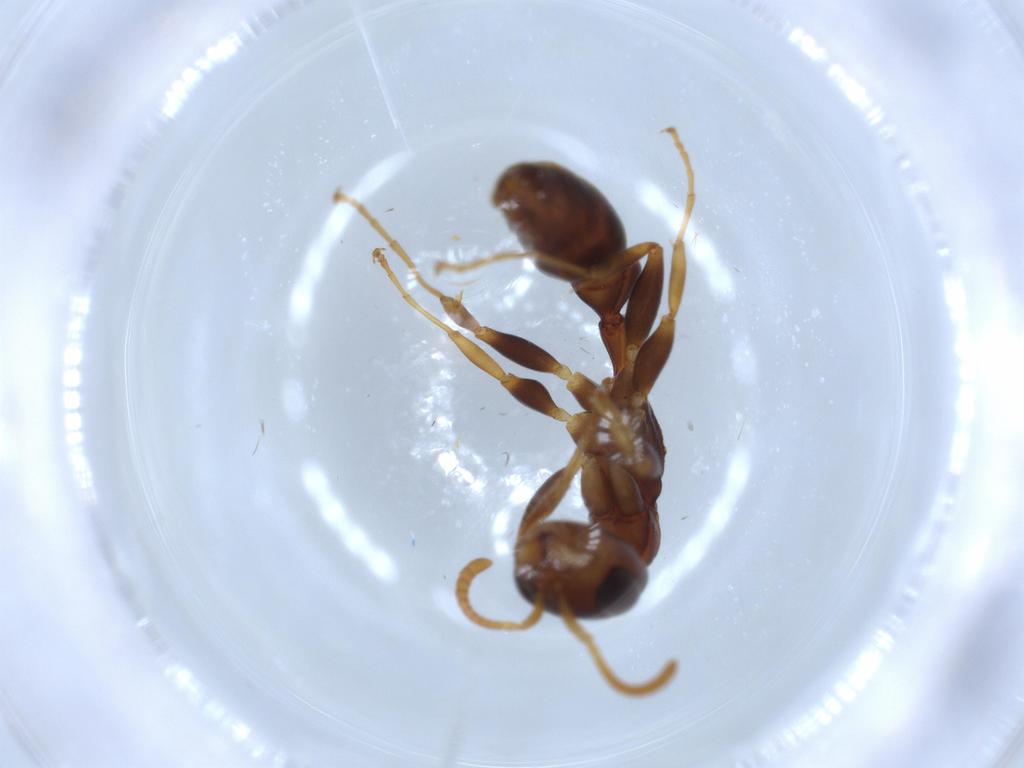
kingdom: Animalia
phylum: Arthropoda
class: Insecta
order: Hymenoptera
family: Formicidae
